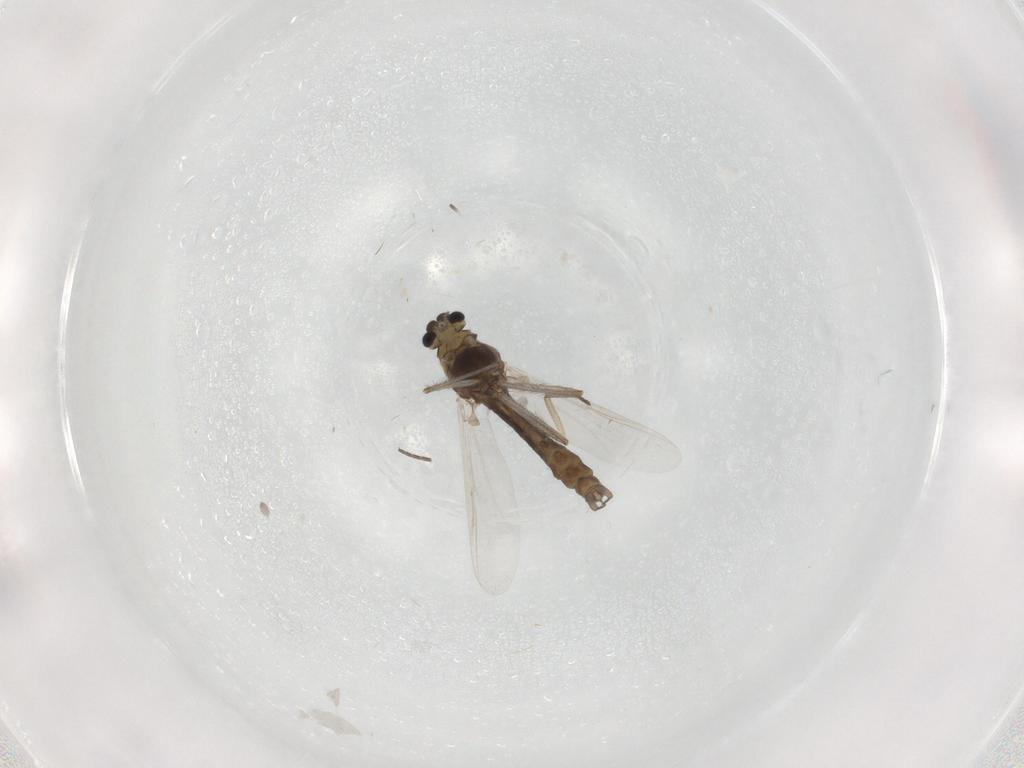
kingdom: Animalia
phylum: Arthropoda
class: Insecta
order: Diptera
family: Chironomidae
